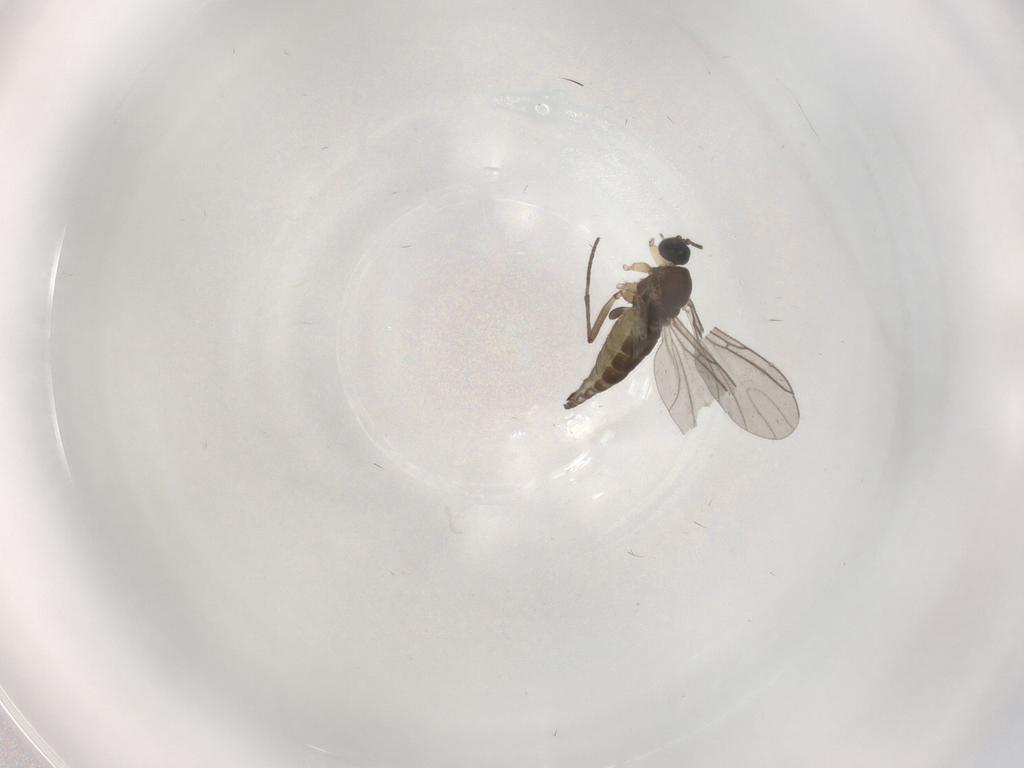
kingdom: Animalia
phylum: Arthropoda
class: Insecta
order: Diptera
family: Sciaridae
